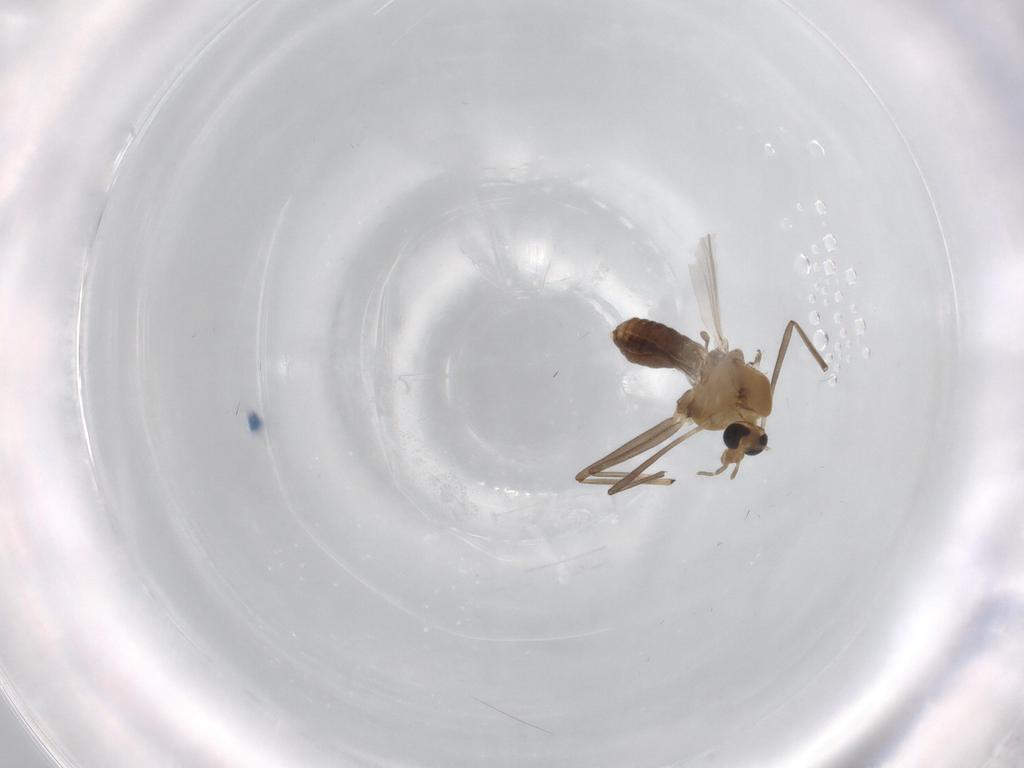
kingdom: Animalia
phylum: Arthropoda
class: Insecta
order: Diptera
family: Chironomidae
